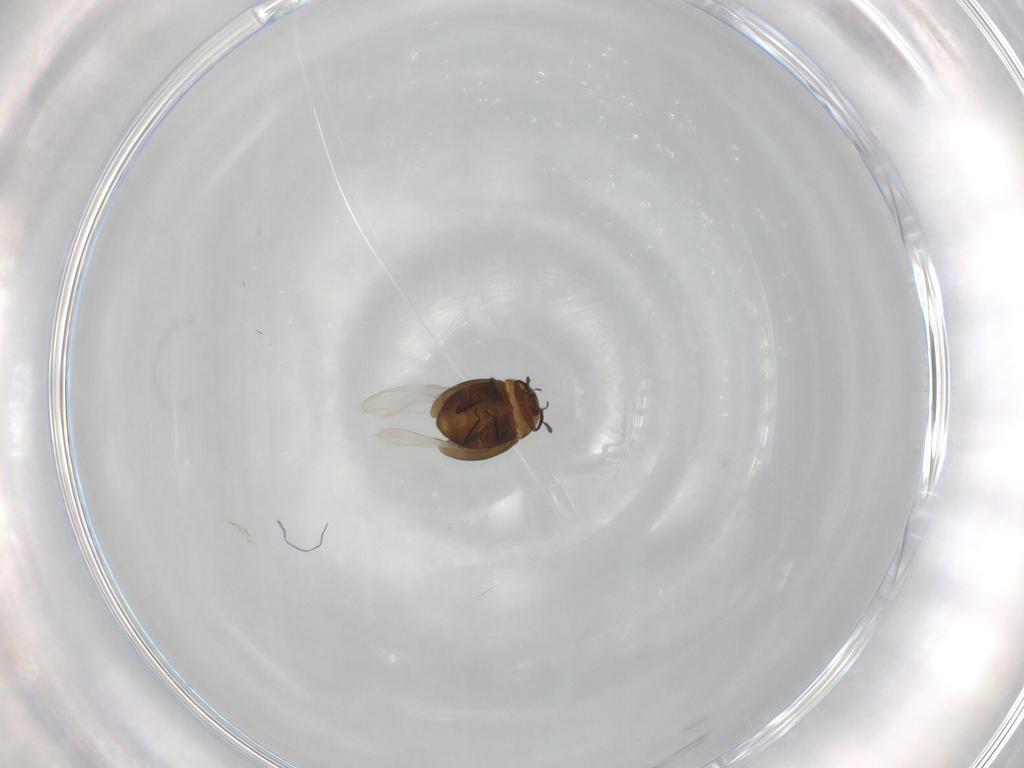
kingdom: Animalia
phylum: Arthropoda
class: Insecta
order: Coleoptera
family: Corylophidae
